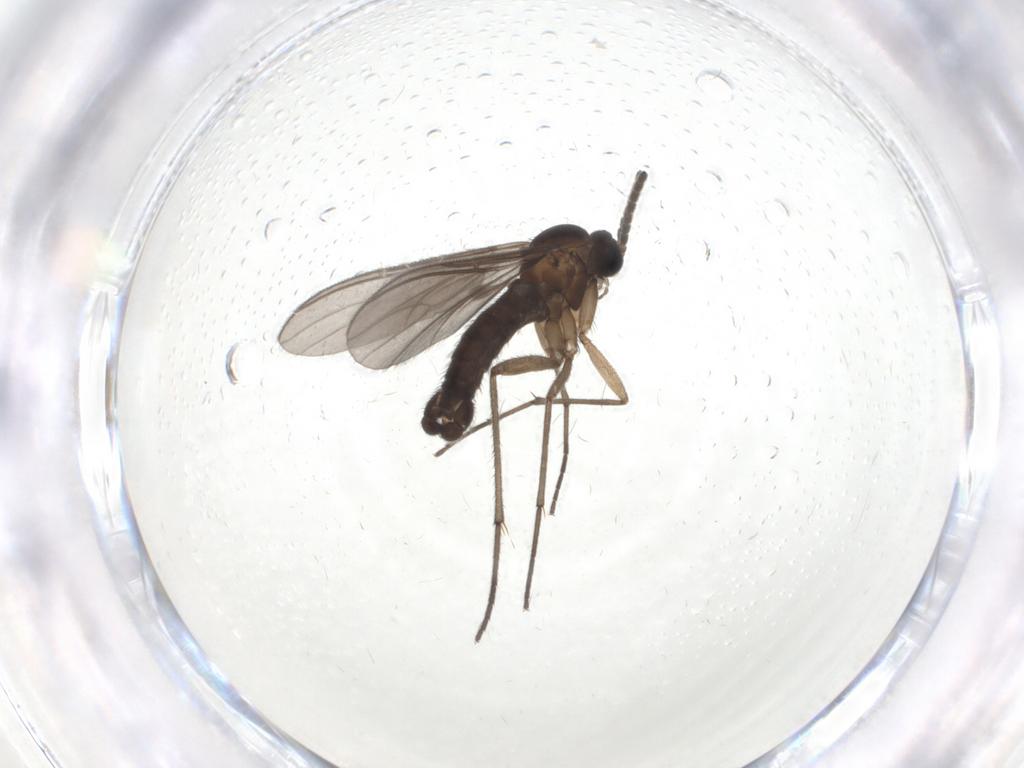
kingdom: Animalia
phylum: Arthropoda
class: Insecta
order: Diptera
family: Sciaridae
